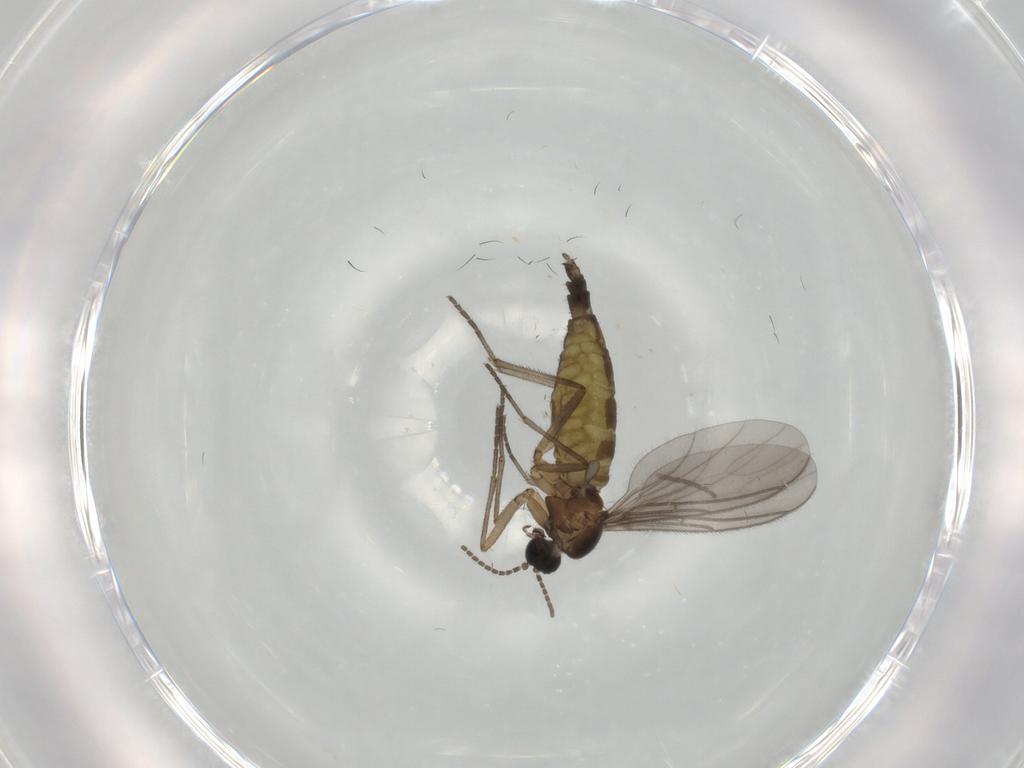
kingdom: Animalia
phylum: Arthropoda
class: Insecta
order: Diptera
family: Sciaridae
